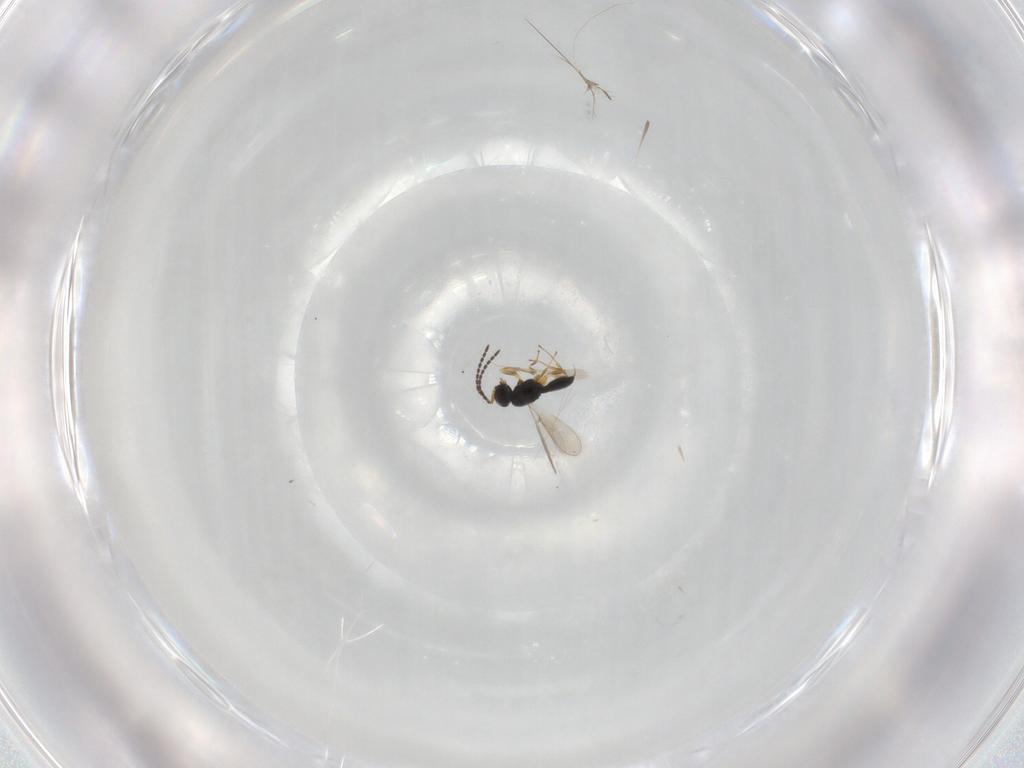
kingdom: Animalia
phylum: Arthropoda
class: Insecta
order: Hymenoptera
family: Scelionidae
